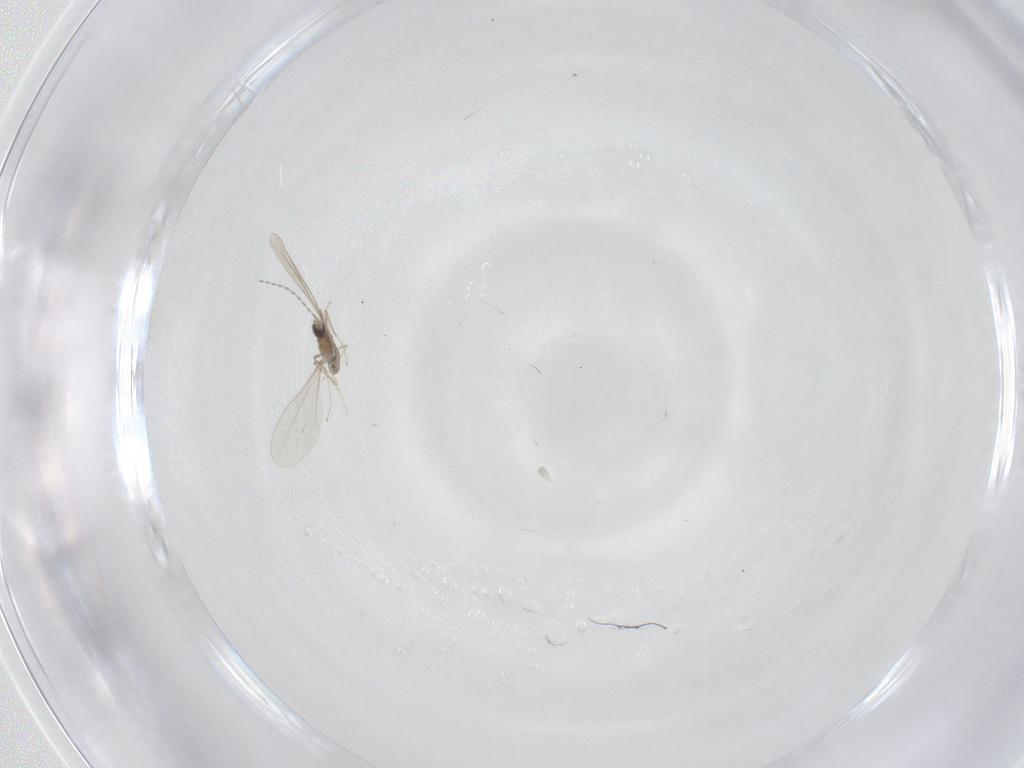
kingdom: Animalia
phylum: Arthropoda
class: Insecta
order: Diptera
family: Cecidomyiidae
